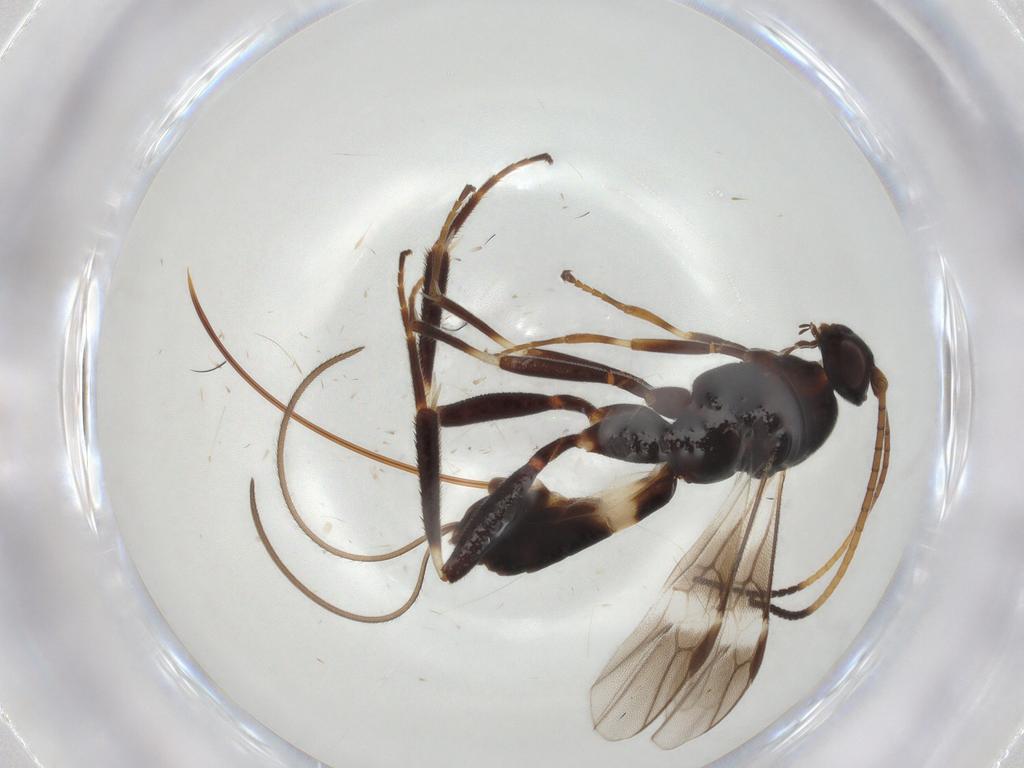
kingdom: Animalia
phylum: Arthropoda
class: Insecta
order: Hymenoptera
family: Braconidae
